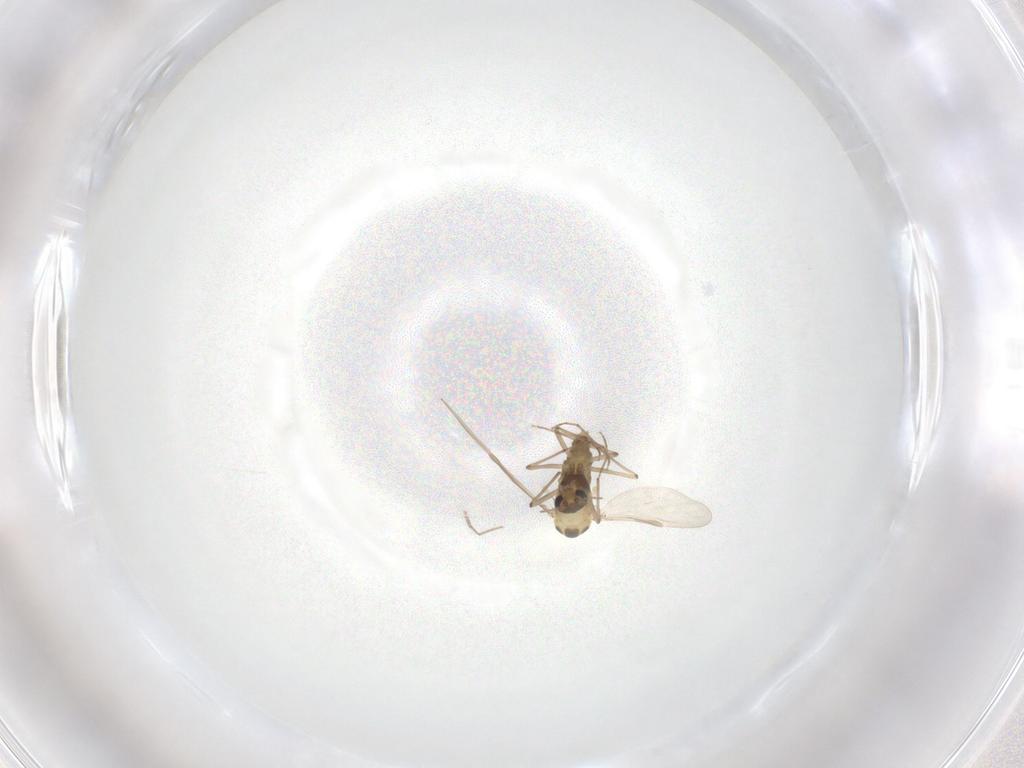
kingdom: Animalia
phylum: Arthropoda
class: Insecta
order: Diptera
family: Chironomidae
